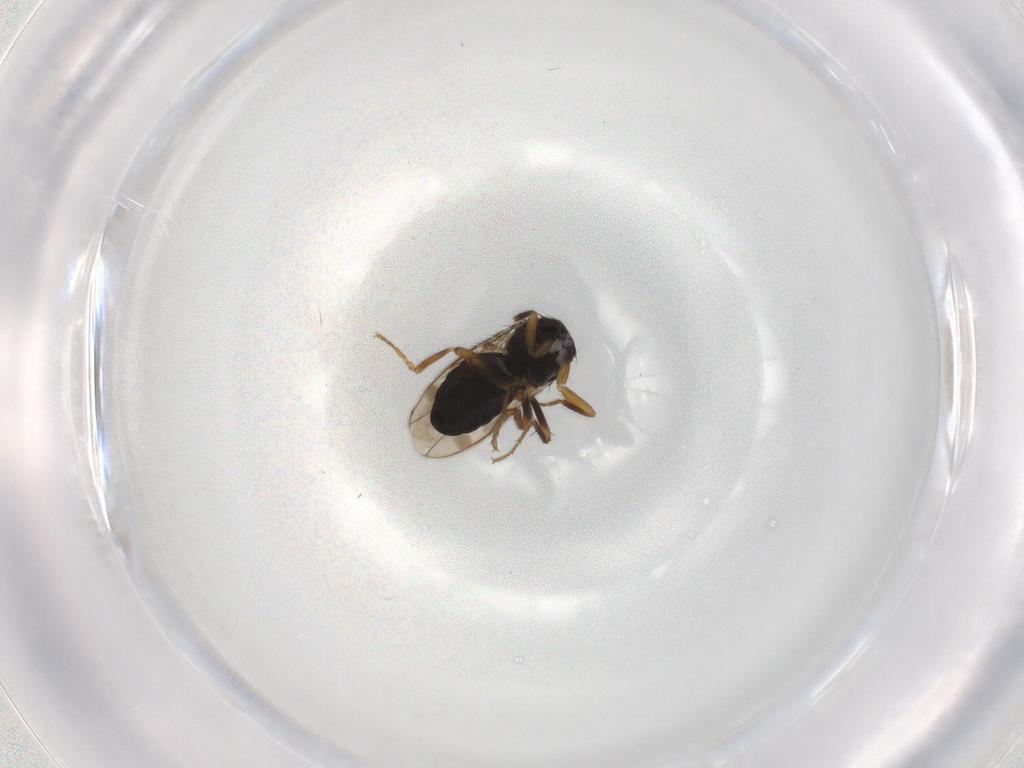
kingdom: Animalia
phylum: Arthropoda
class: Insecta
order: Diptera
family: Sphaeroceridae
